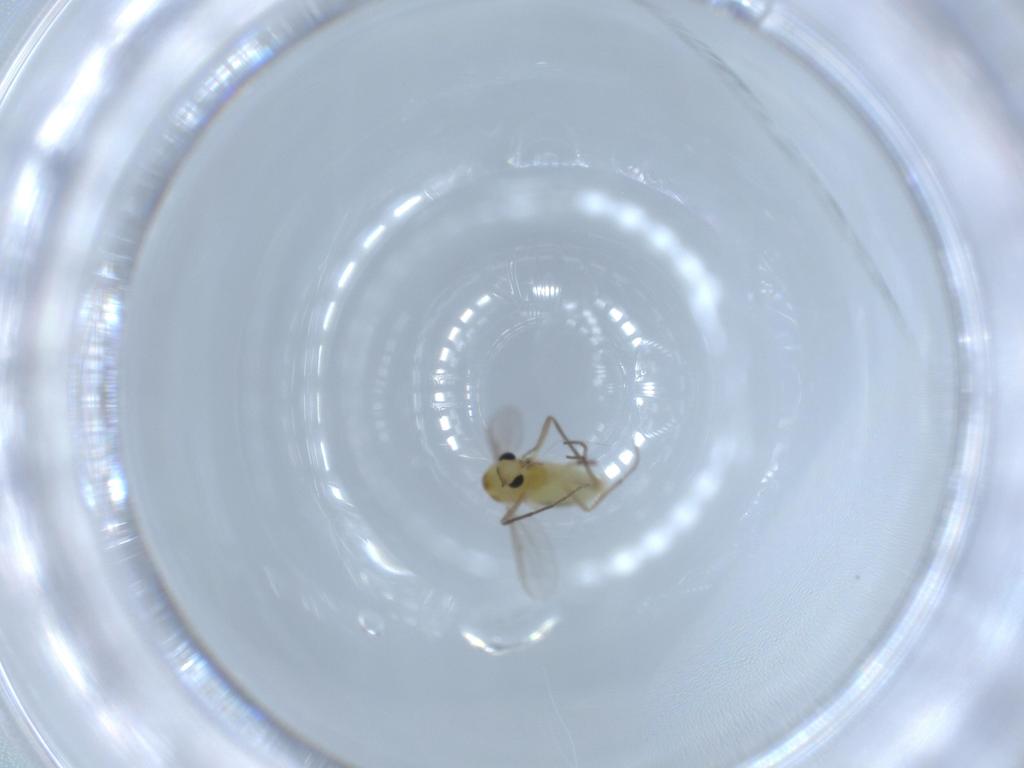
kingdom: Animalia
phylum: Arthropoda
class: Insecta
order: Diptera
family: Chironomidae
